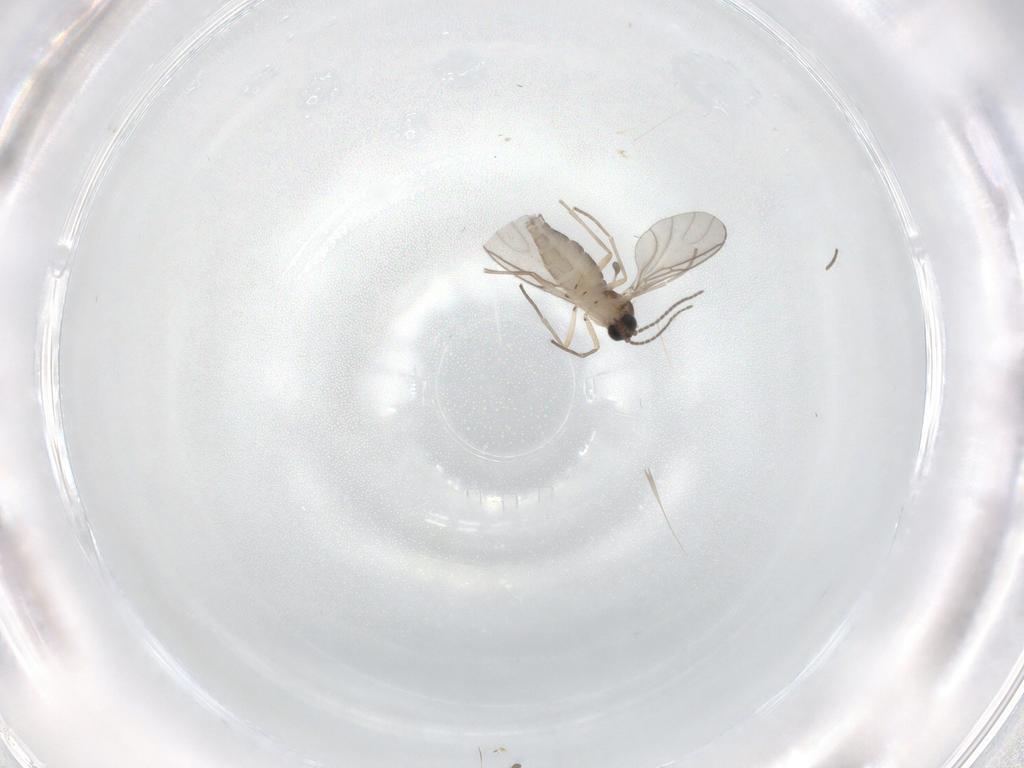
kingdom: Animalia
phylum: Arthropoda
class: Insecta
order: Diptera
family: Sciaridae
